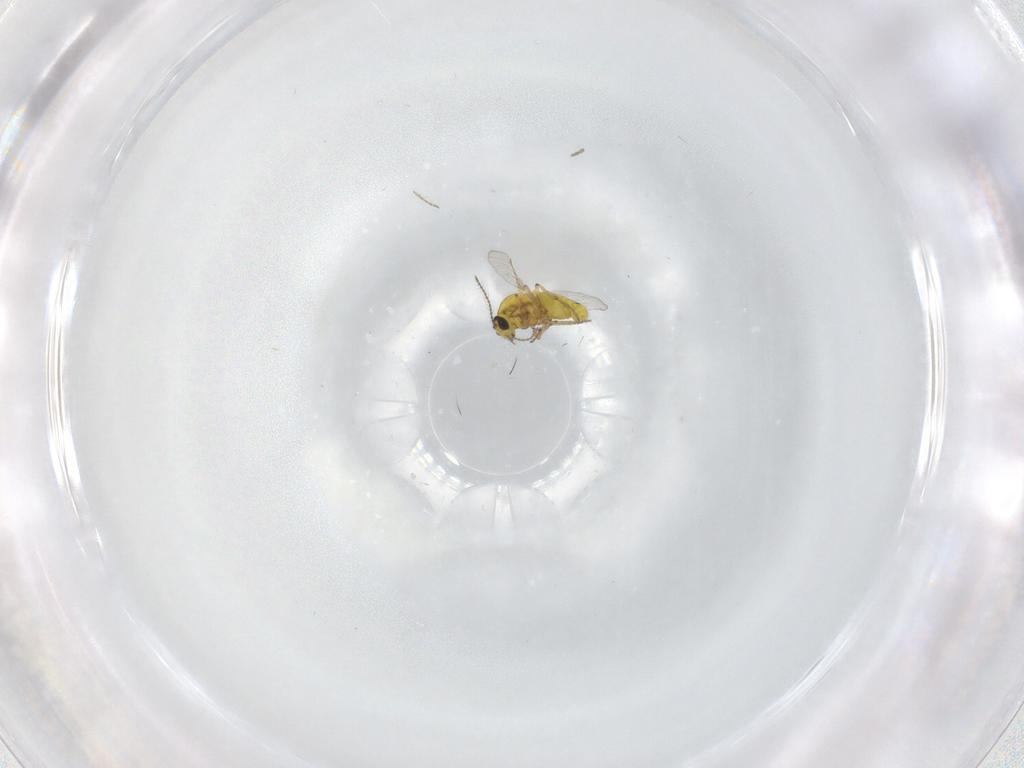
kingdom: Animalia
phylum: Arthropoda
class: Insecta
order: Diptera
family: Ceratopogonidae
